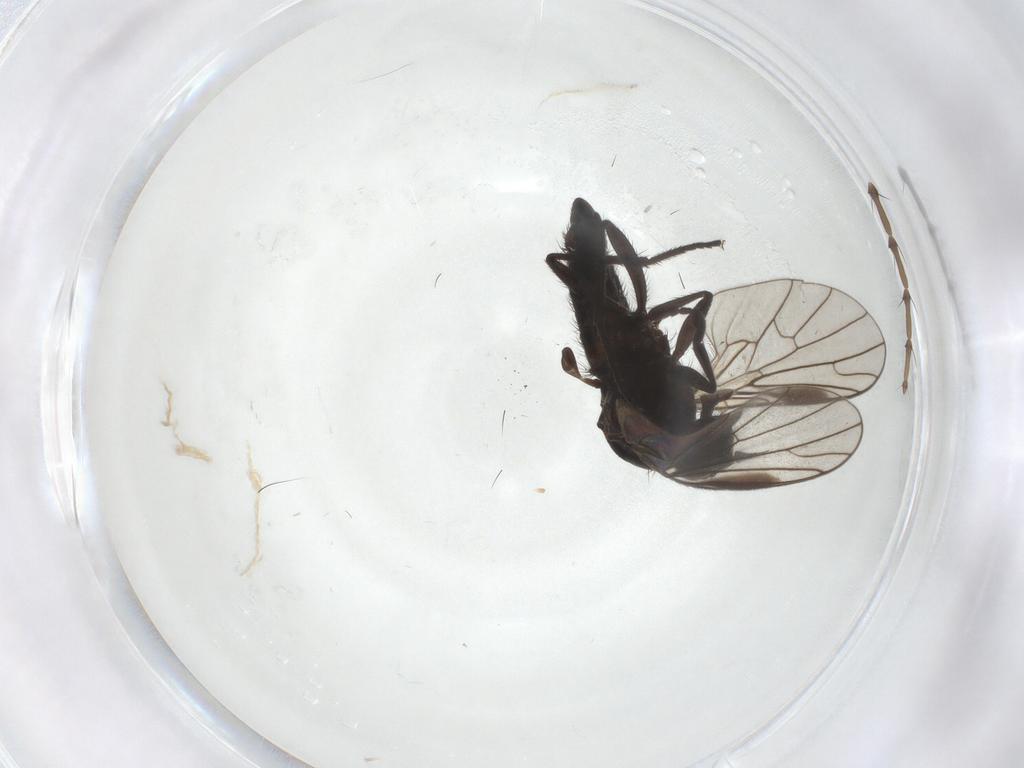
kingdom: Animalia
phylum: Arthropoda
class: Insecta
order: Diptera
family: Empididae
